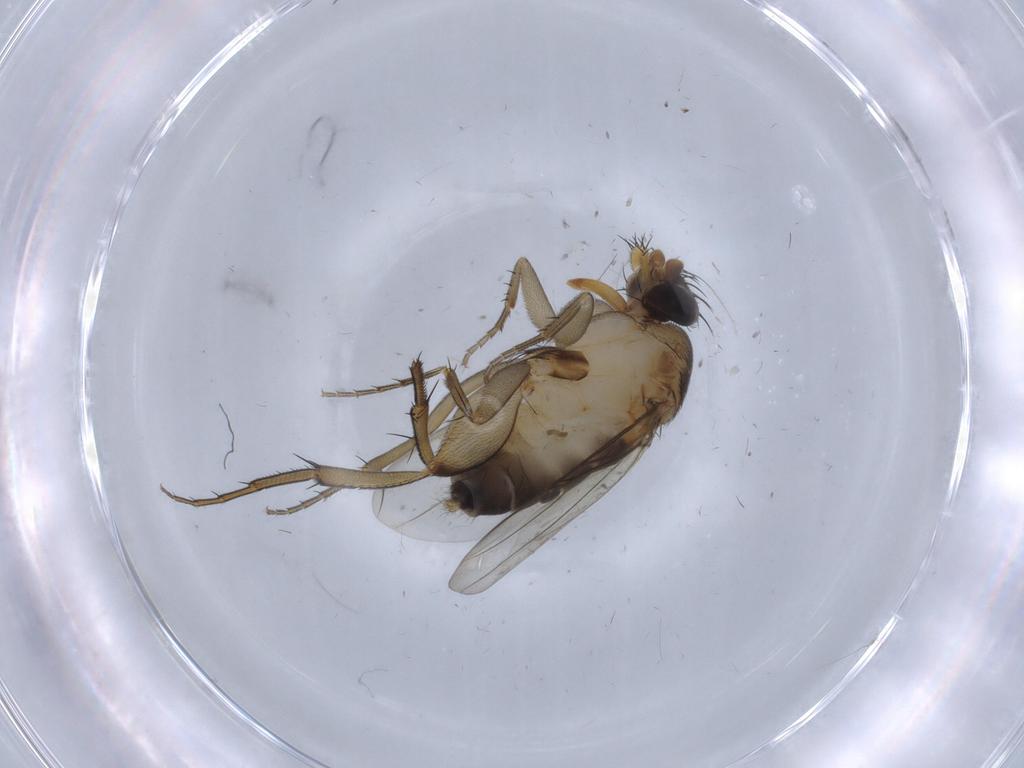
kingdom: Animalia
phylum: Arthropoda
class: Insecta
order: Diptera
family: Phoridae
